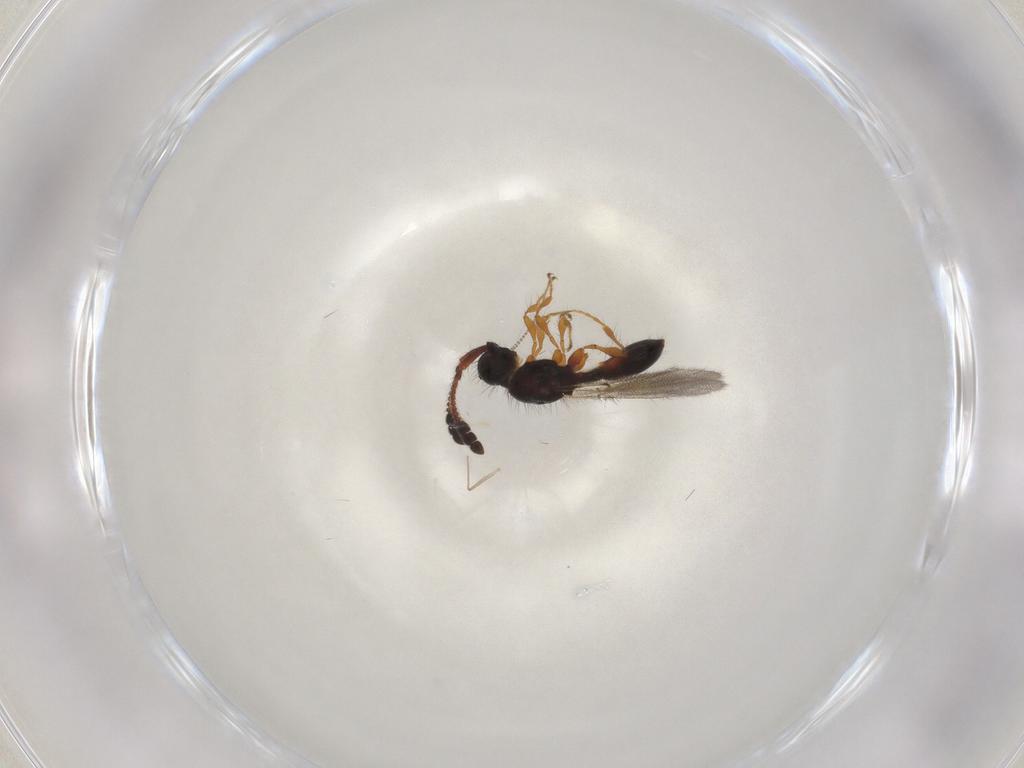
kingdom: Animalia
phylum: Arthropoda
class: Insecta
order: Hymenoptera
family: Diapriidae
